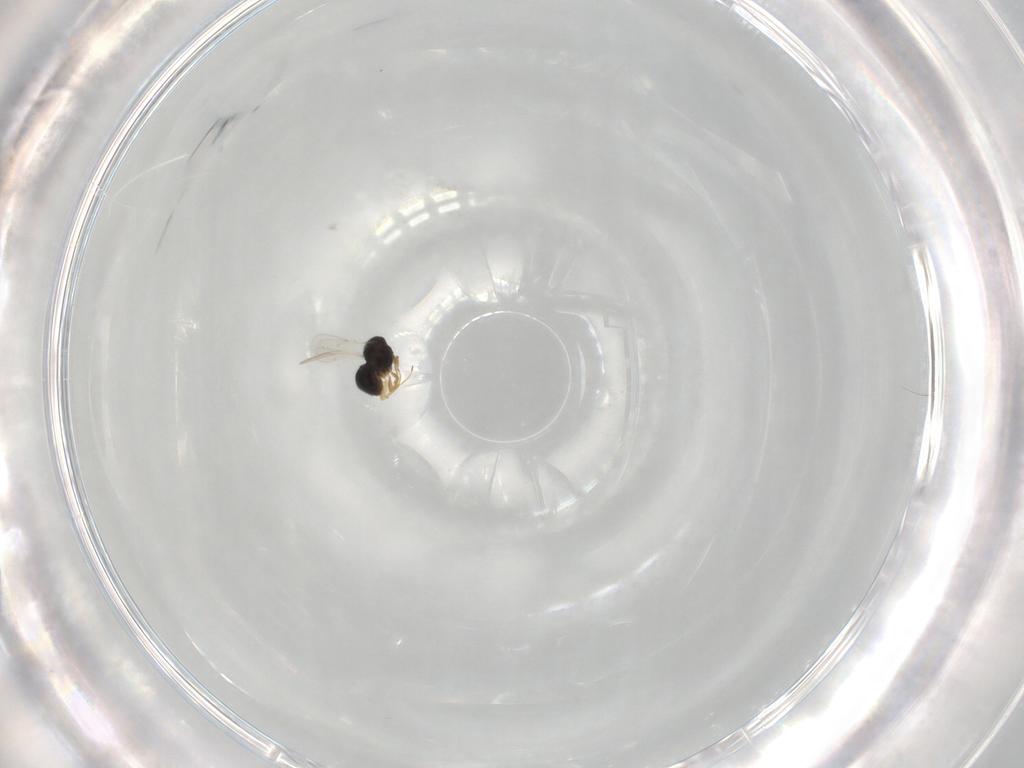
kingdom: Animalia
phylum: Arthropoda
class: Insecta
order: Hymenoptera
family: Scelionidae
